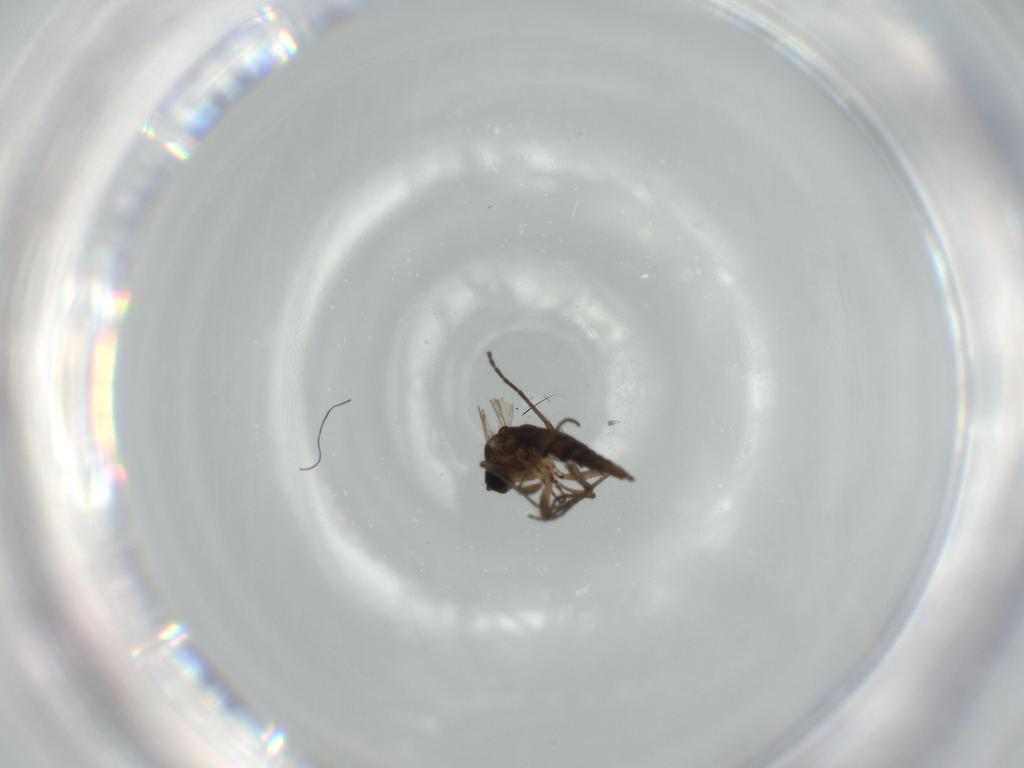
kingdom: Animalia
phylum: Arthropoda
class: Insecta
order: Diptera
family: Sciaridae
